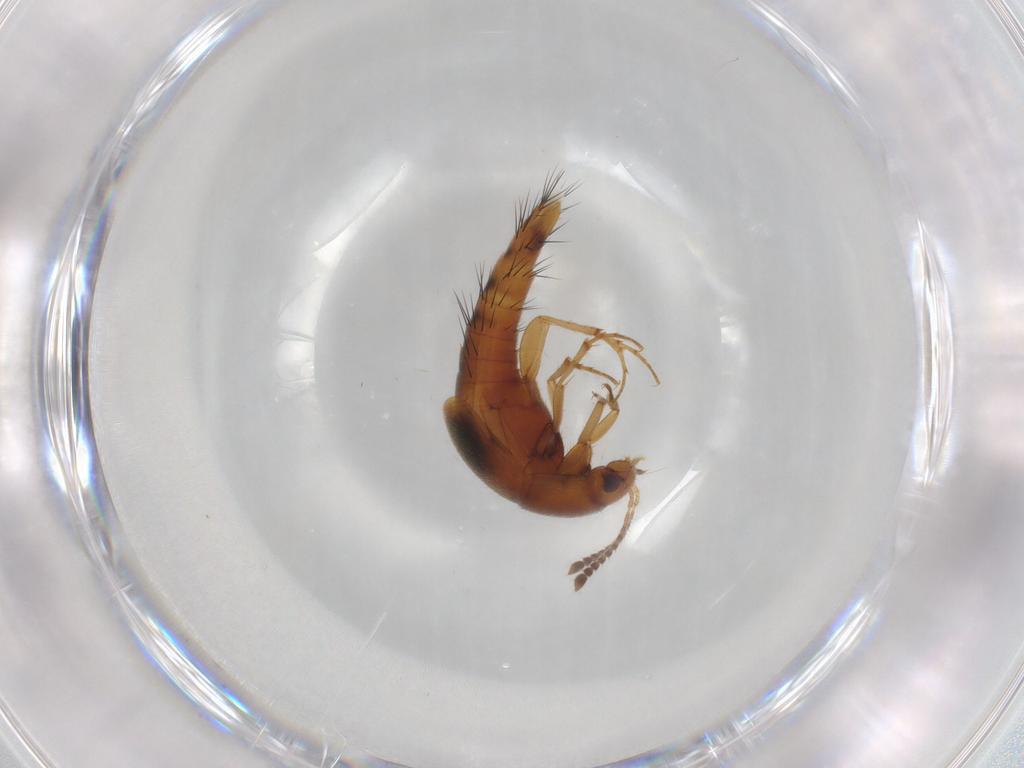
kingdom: Animalia
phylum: Arthropoda
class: Insecta
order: Coleoptera
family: Staphylinidae
